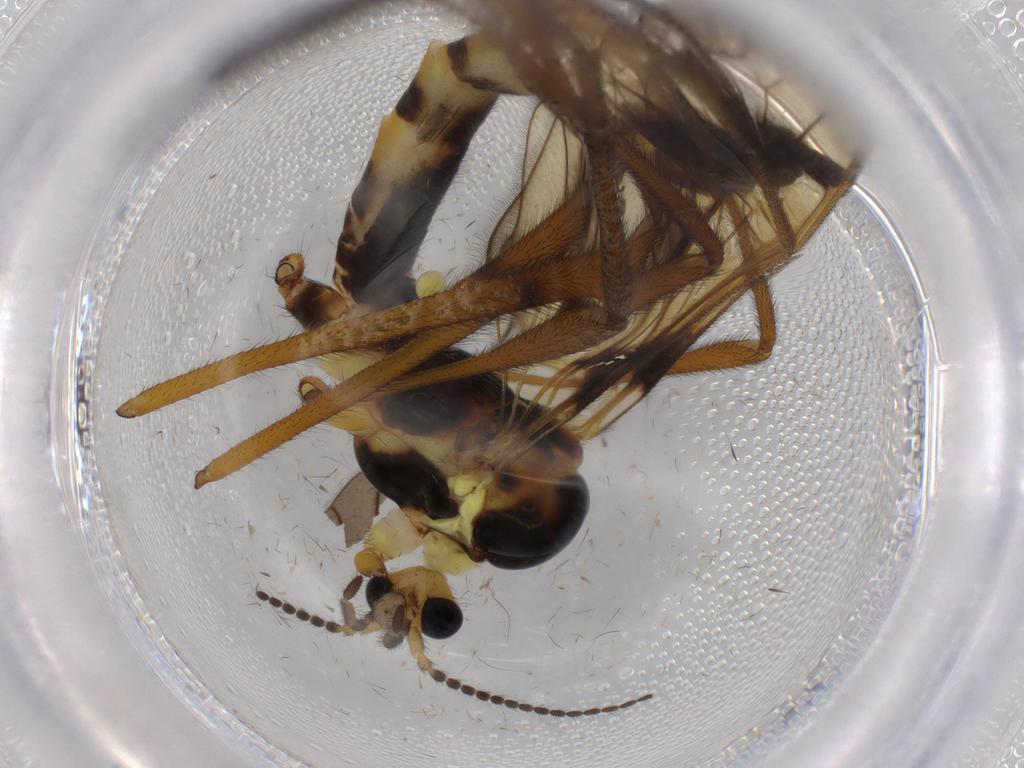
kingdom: Animalia
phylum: Arthropoda
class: Insecta
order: Diptera
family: Limoniidae
